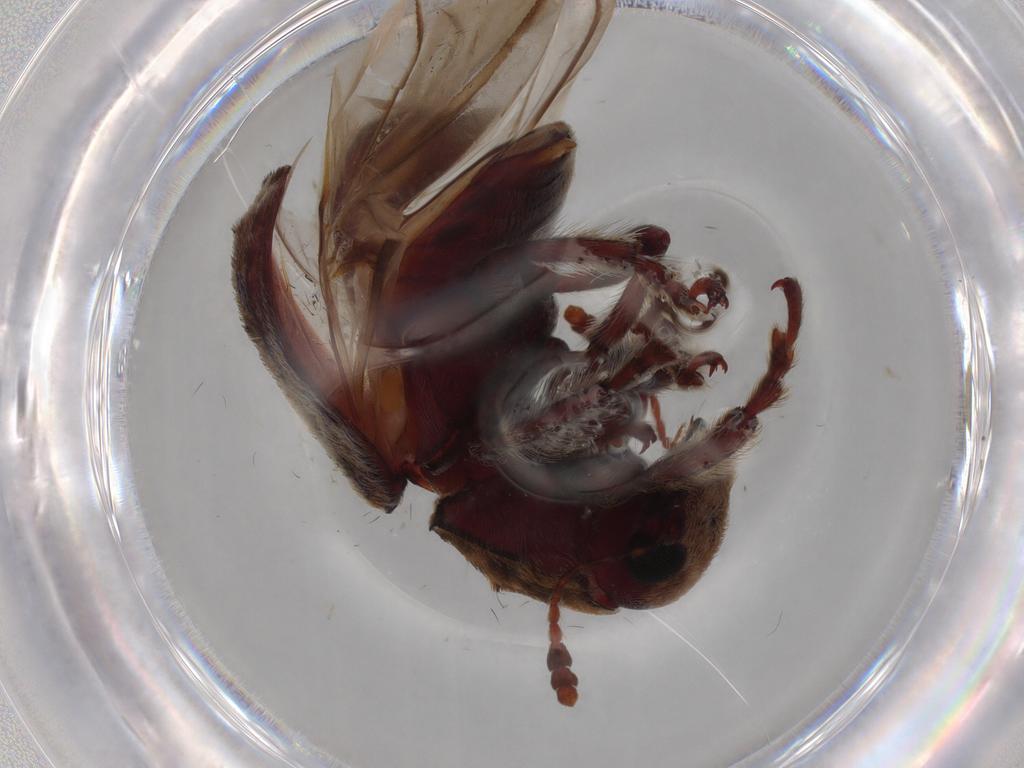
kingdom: Animalia
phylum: Arthropoda
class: Insecta
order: Coleoptera
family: Anthribidae
